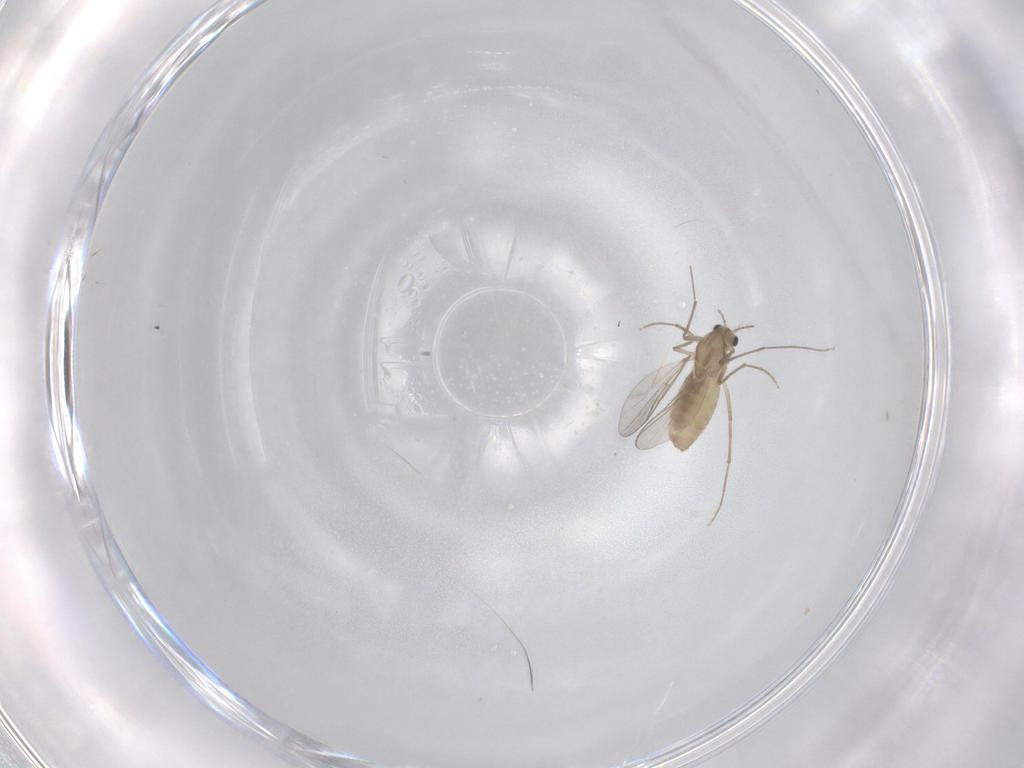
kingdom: Animalia
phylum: Arthropoda
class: Insecta
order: Diptera
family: Chironomidae
